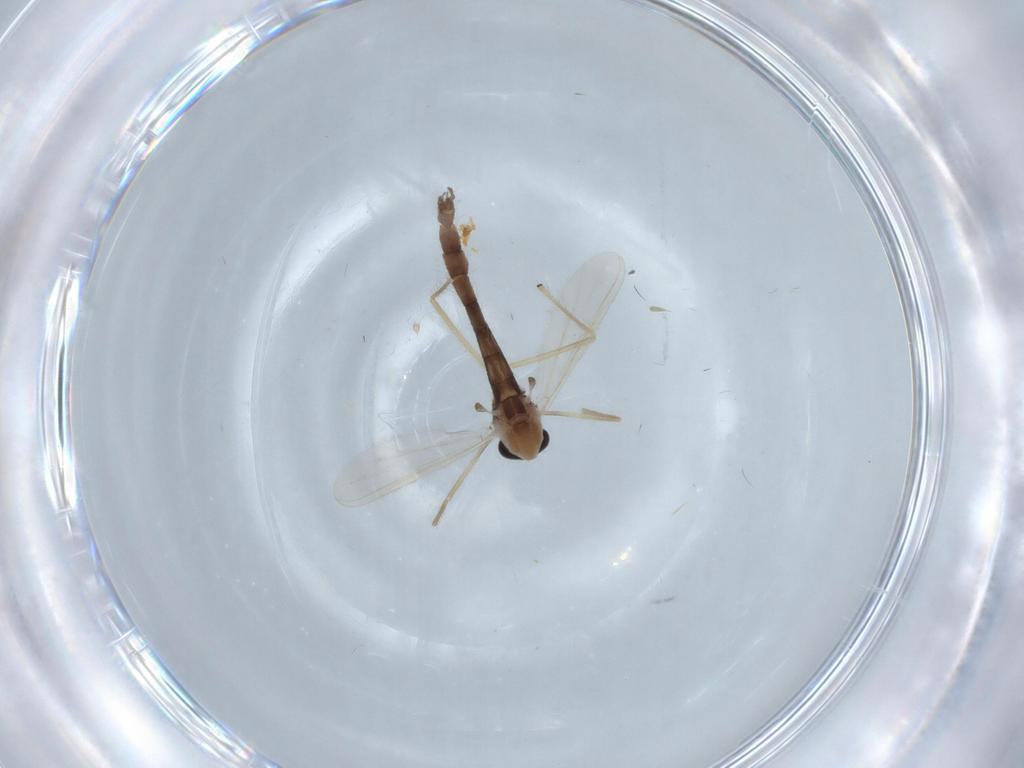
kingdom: Animalia
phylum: Arthropoda
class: Insecta
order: Diptera
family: Chironomidae
